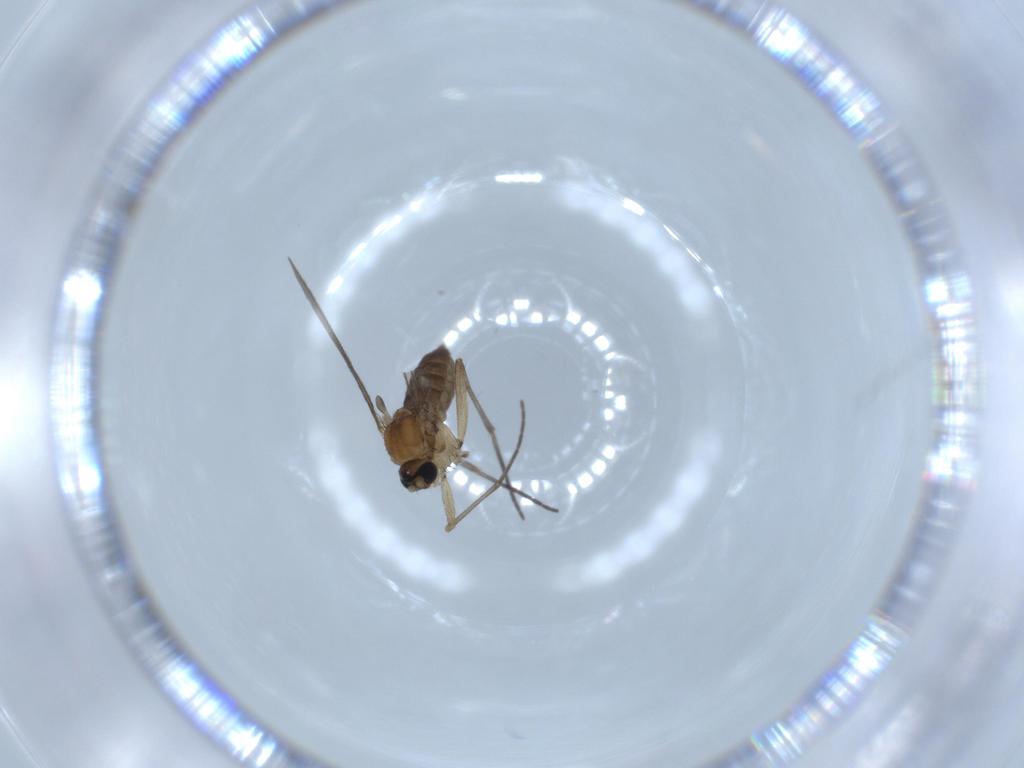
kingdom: Animalia
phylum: Arthropoda
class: Insecta
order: Diptera
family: Sciaridae
